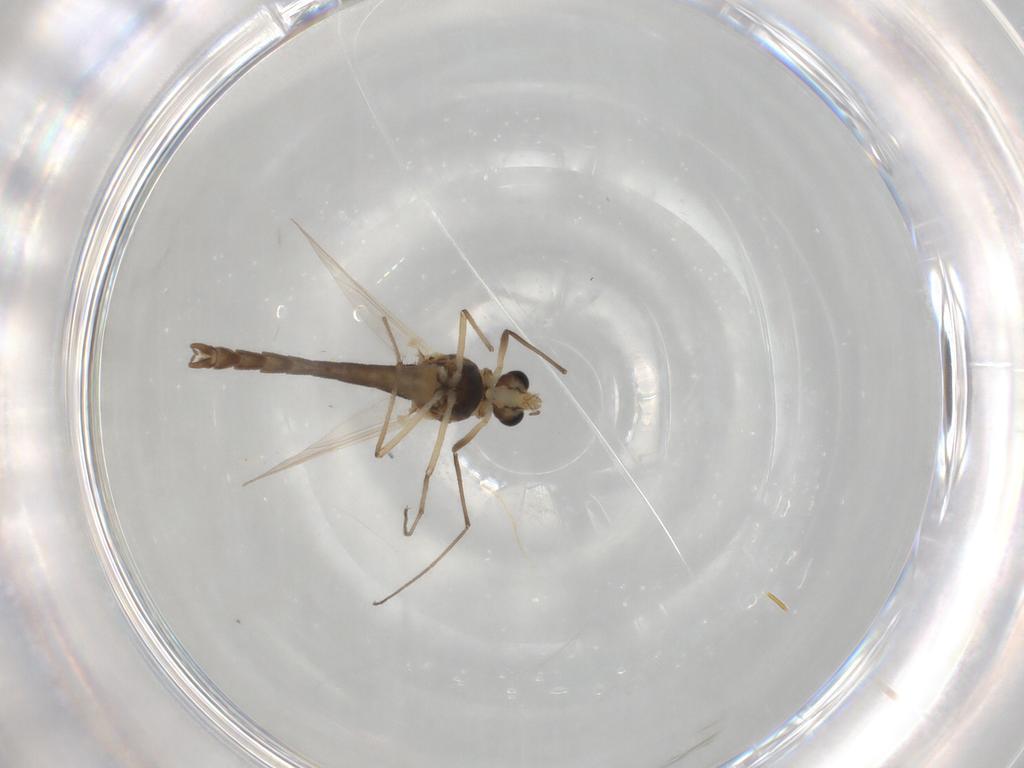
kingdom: Animalia
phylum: Arthropoda
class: Insecta
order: Diptera
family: Chironomidae
